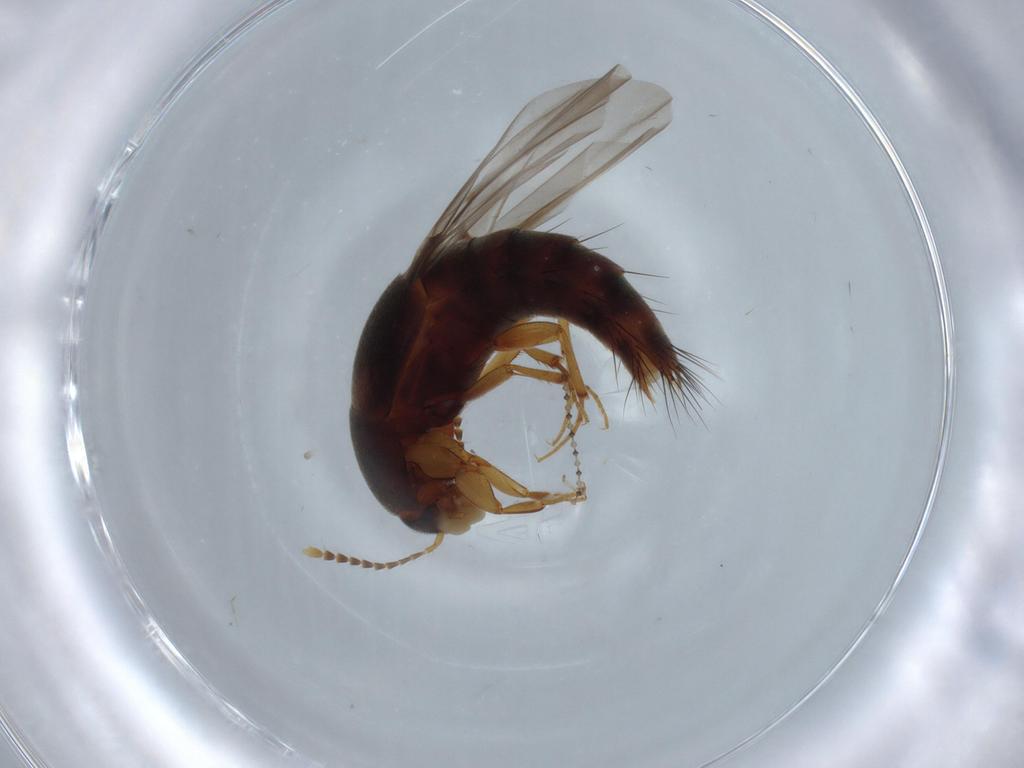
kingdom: Animalia
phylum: Arthropoda
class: Insecta
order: Coleoptera
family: Staphylinidae
